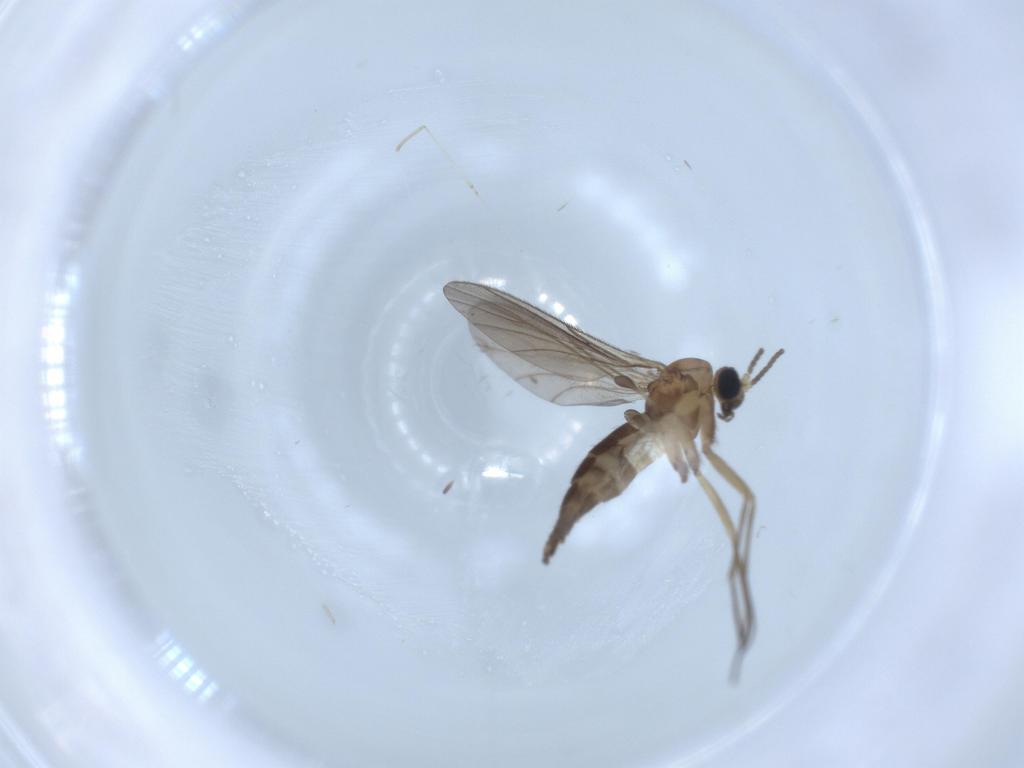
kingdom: Animalia
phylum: Arthropoda
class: Insecta
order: Diptera
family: Sciaridae
